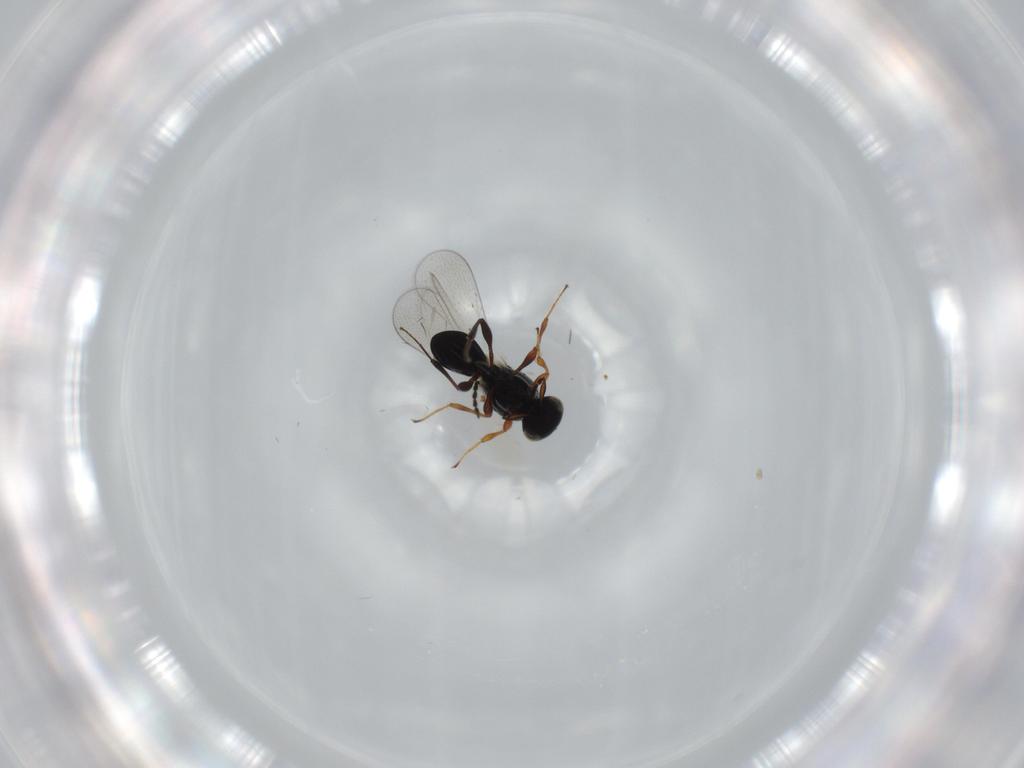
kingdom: Animalia
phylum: Arthropoda
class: Insecta
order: Hymenoptera
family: Platygastridae
